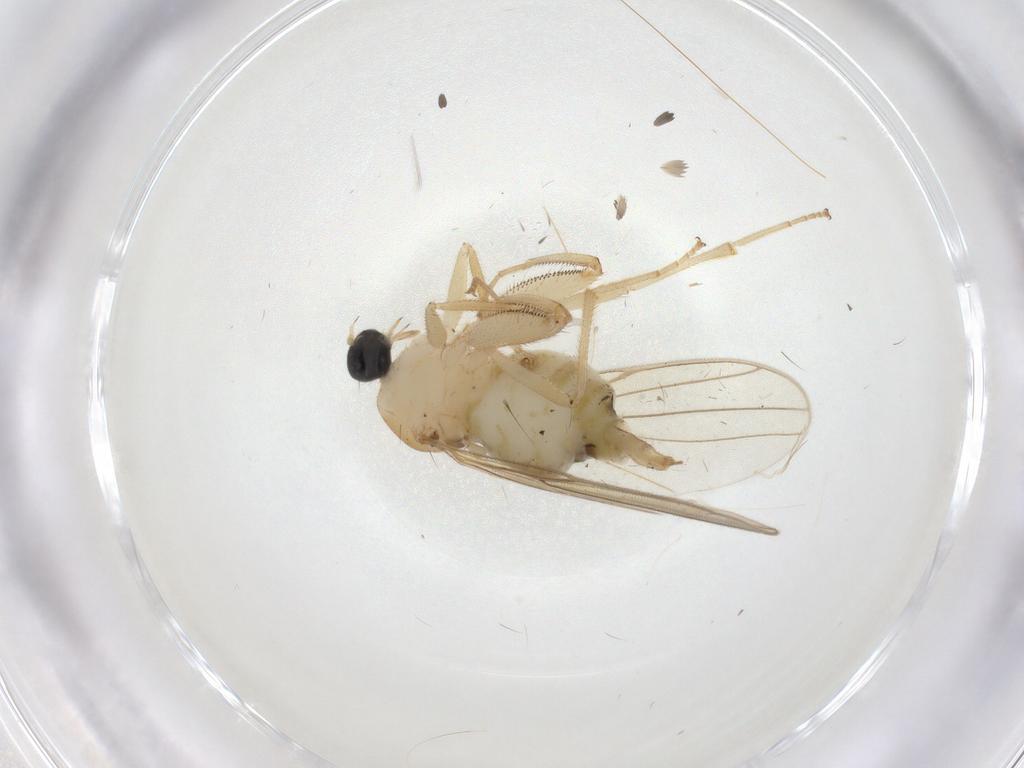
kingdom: Animalia
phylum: Arthropoda
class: Insecta
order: Diptera
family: Hybotidae
